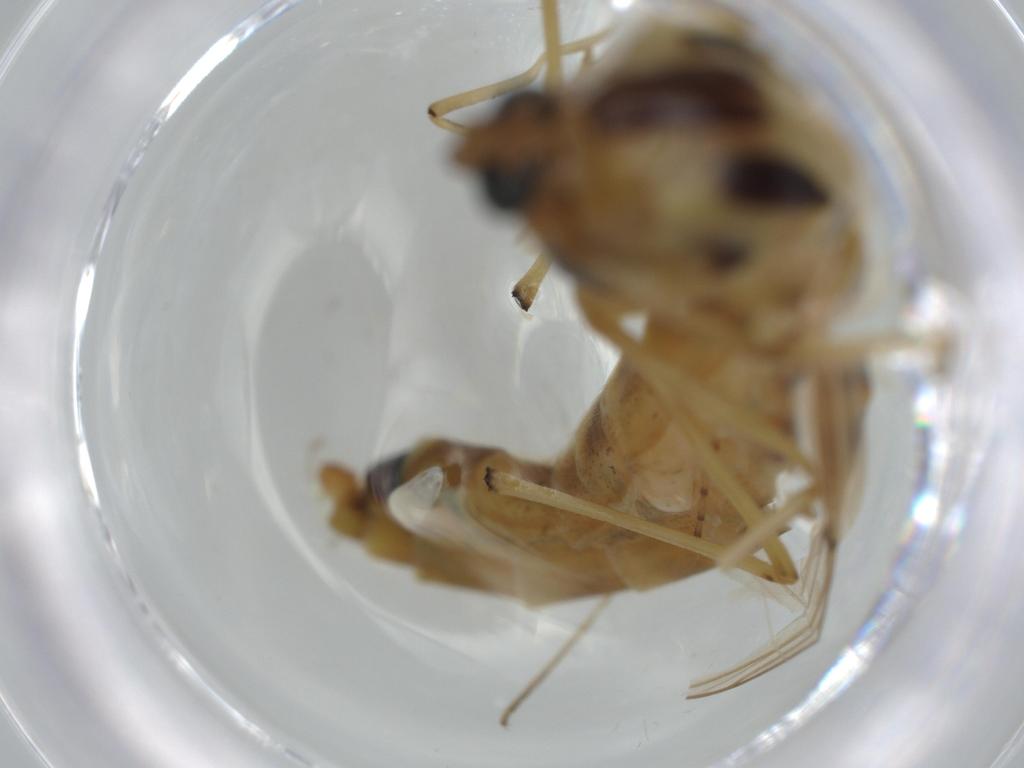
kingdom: Animalia
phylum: Arthropoda
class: Insecta
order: Diptera
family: Chironomidae
